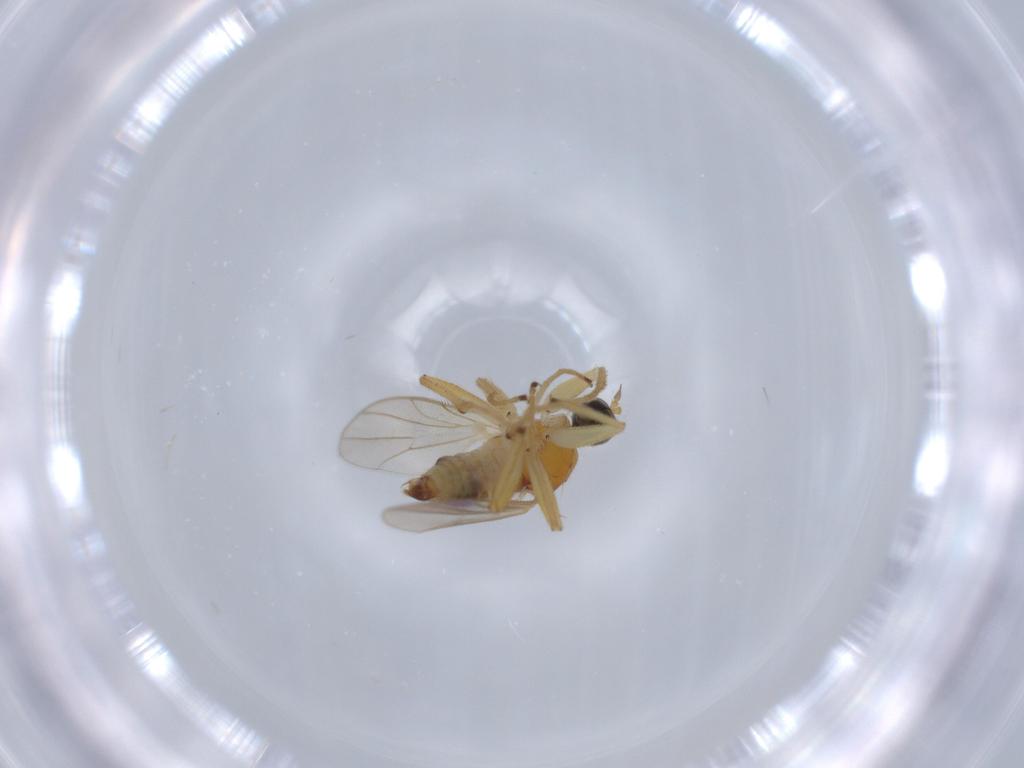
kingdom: Animalia
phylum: Arthropoda
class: Insecta
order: Diptera
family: Hybotidae
